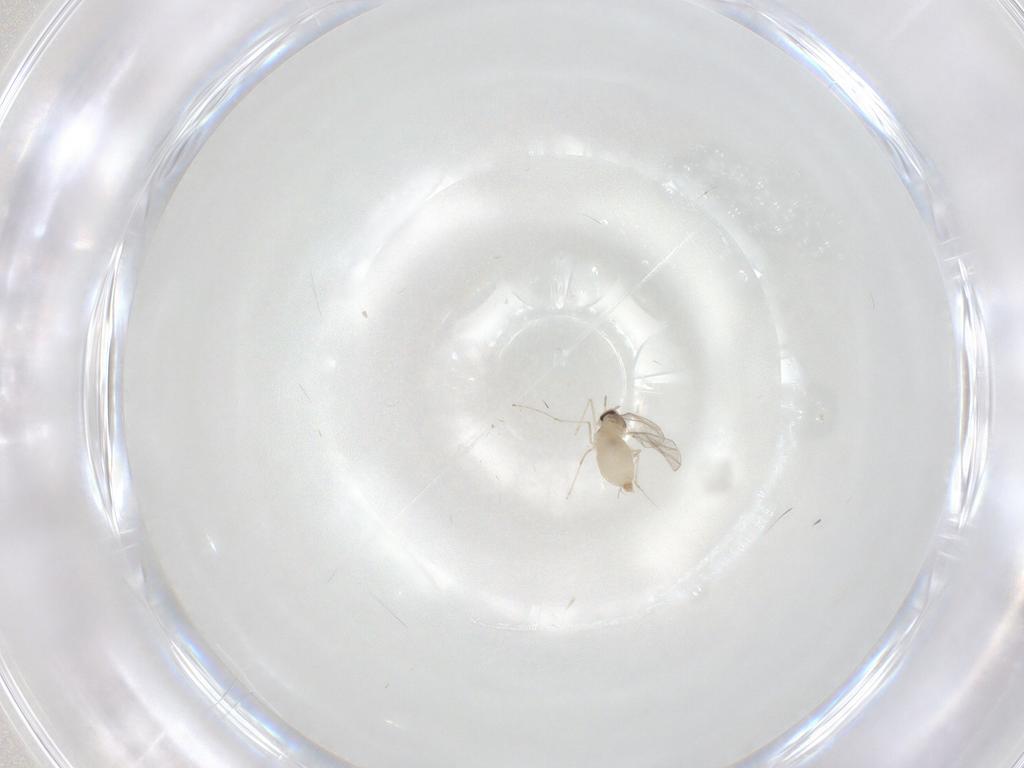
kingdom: Animalia
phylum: Arthropoda
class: Insecta
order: Diptera
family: Cecidomyiidae
